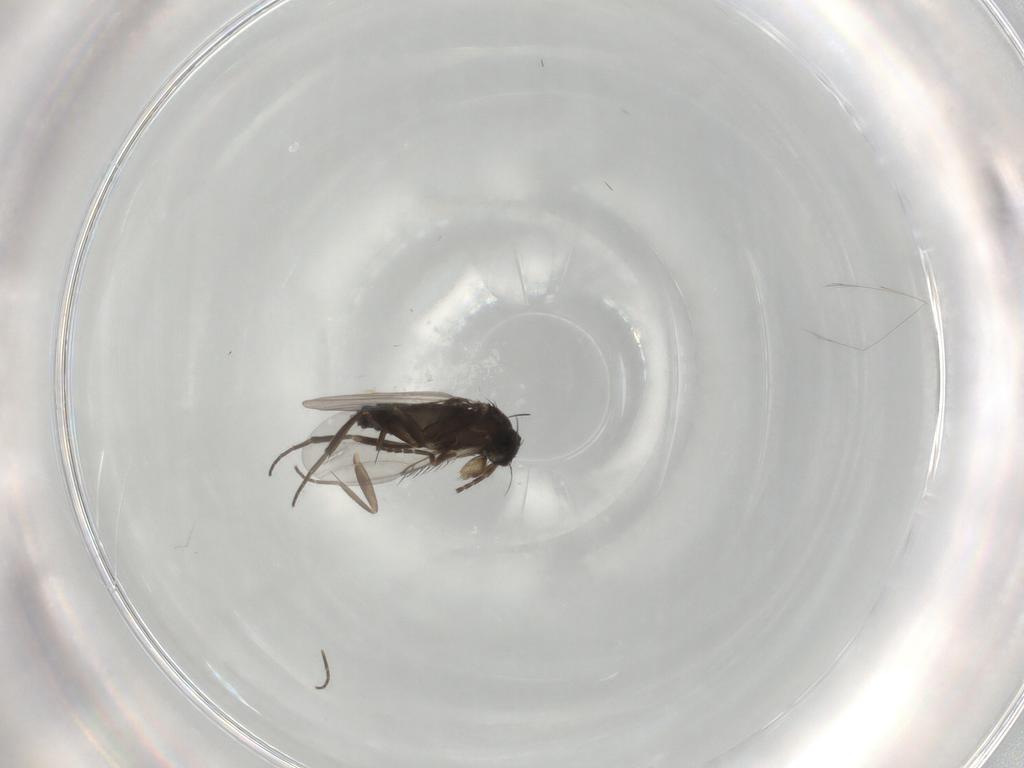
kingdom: Animalia
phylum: Arthropoda
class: Insecta
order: Diptera
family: Phoridae
